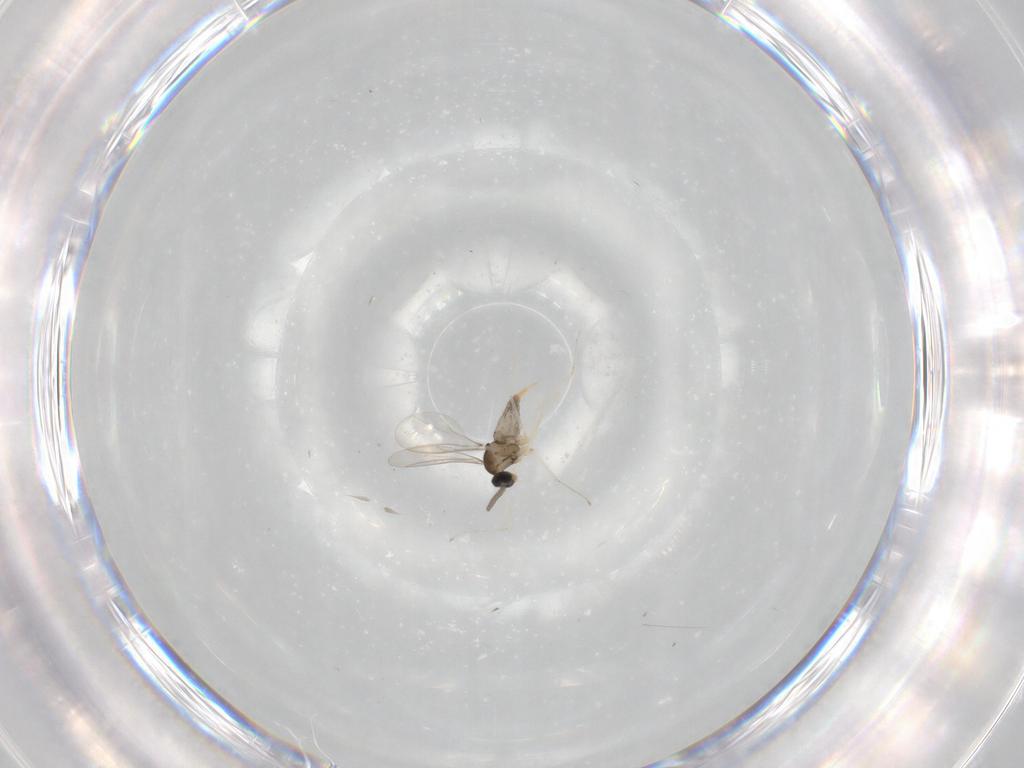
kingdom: Animalia
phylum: Arthropoda
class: Insecta
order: Diptera
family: Cecidomyiidae
